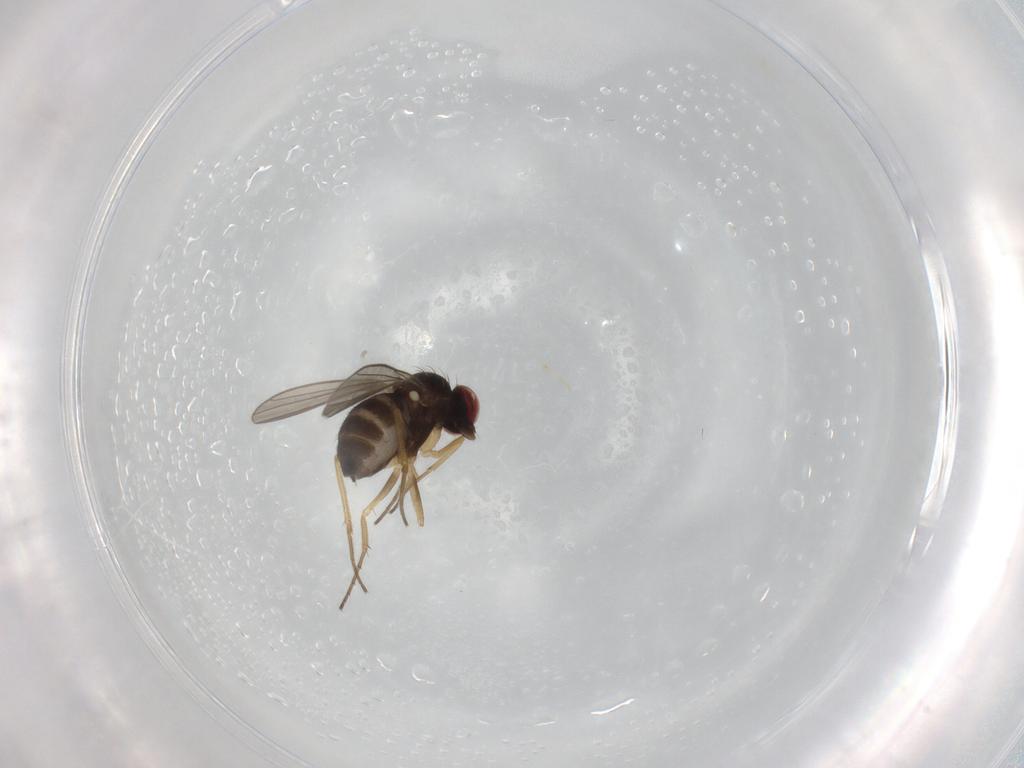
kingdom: Animalia
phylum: Arthropoda
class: Insecta
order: Diptera
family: Dolichopodidae
